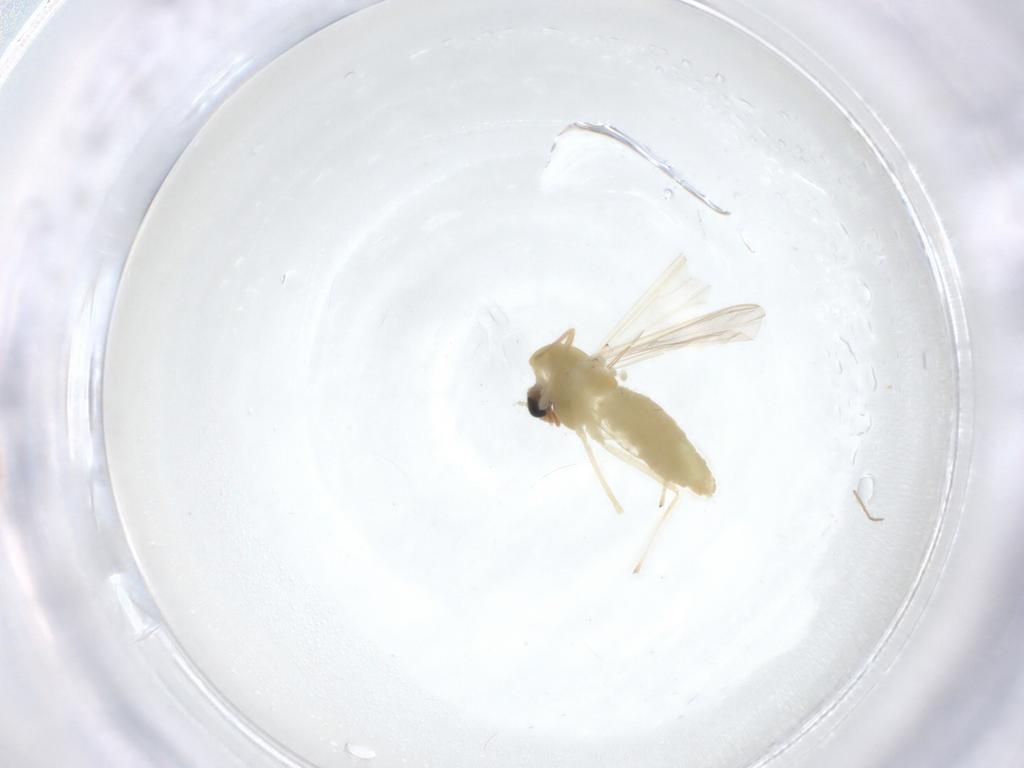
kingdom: Animalia
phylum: Arthropoda
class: Insecta
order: Diptera
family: Chironomidae
